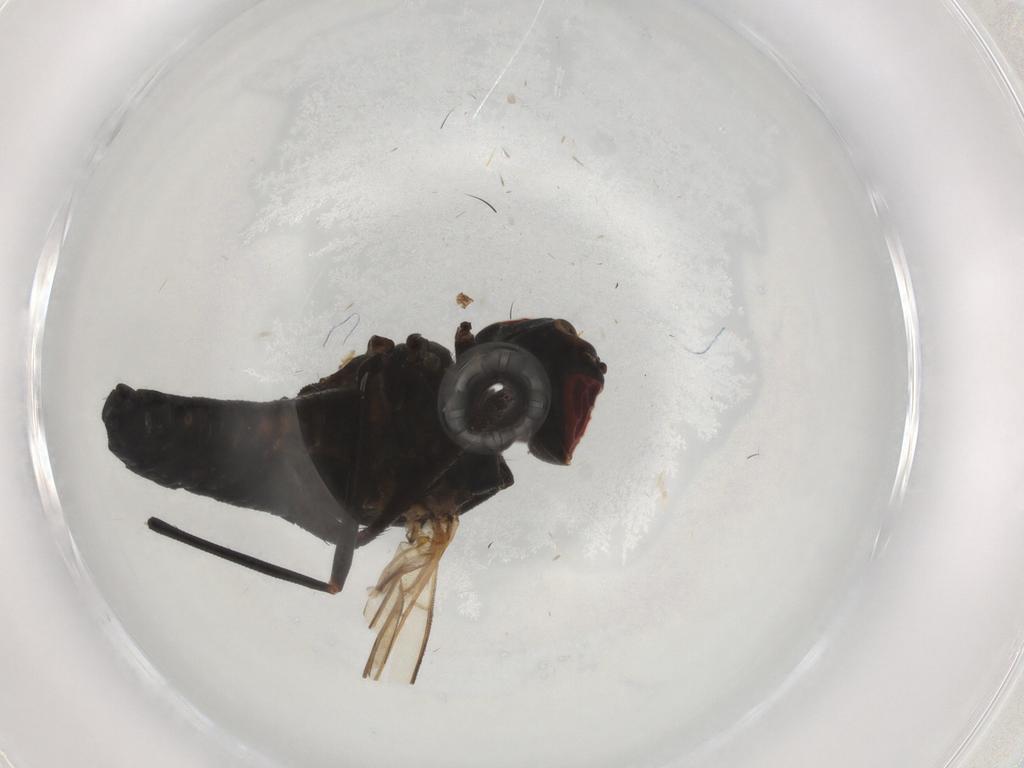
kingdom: Animalia
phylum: Arthropoda
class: Insecta
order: Diptera
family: Bombyliidae
